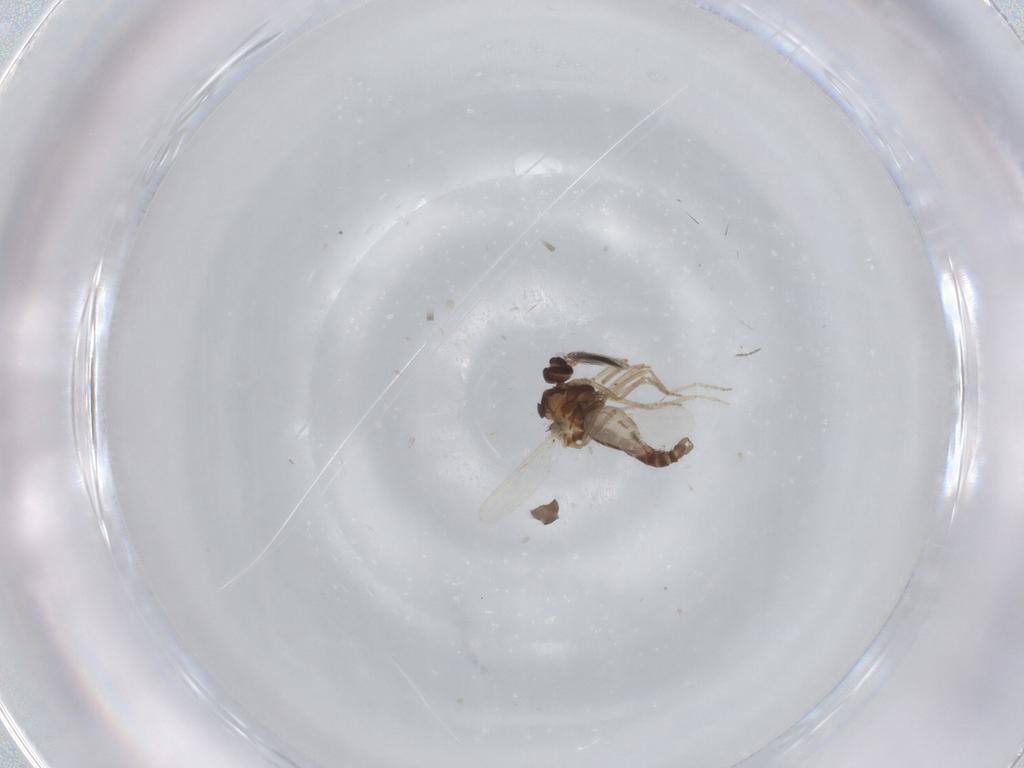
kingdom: Animalia
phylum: Arthropoda
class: Insecta
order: Diptera
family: Ceratopogonidae
